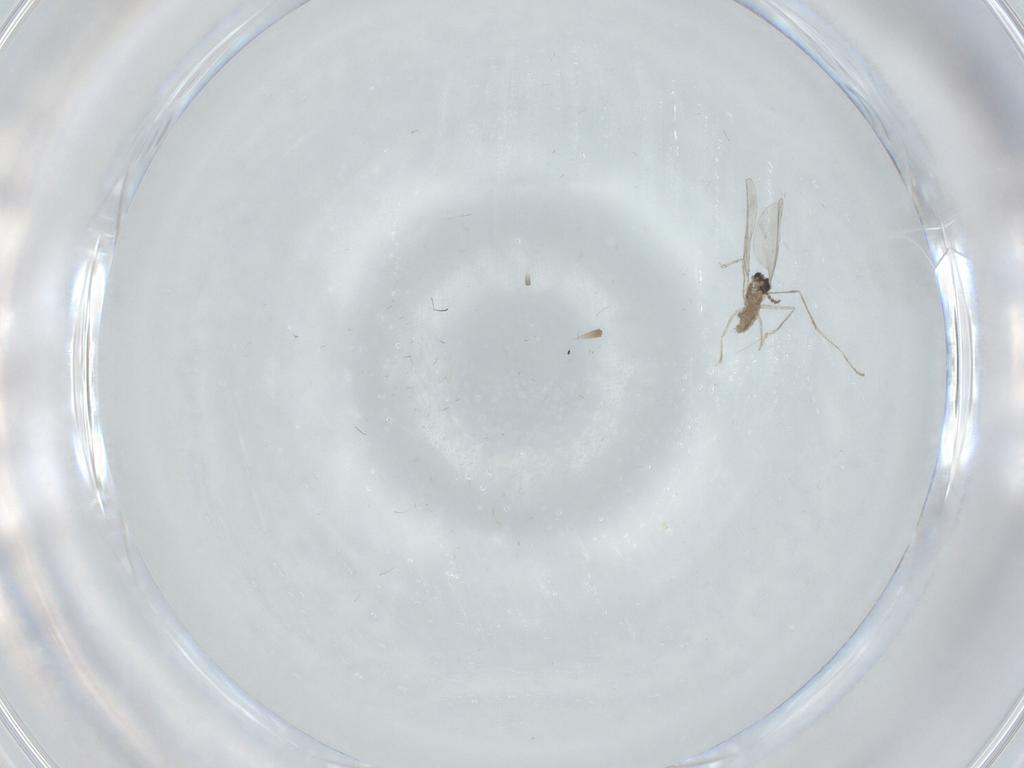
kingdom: Animalia
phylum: Arthropoda
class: Insecta
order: Diptera
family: Cecidomyiidae
